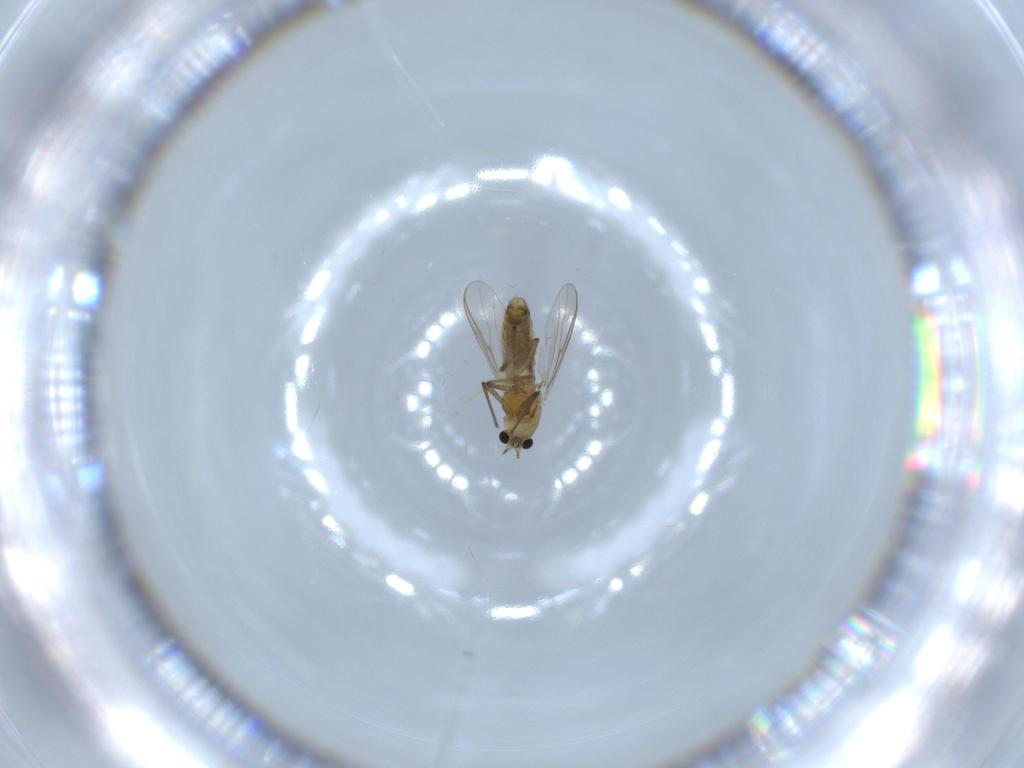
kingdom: Animalia
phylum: Arthropoda
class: Insecta
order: Diptera
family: Chironomidae
